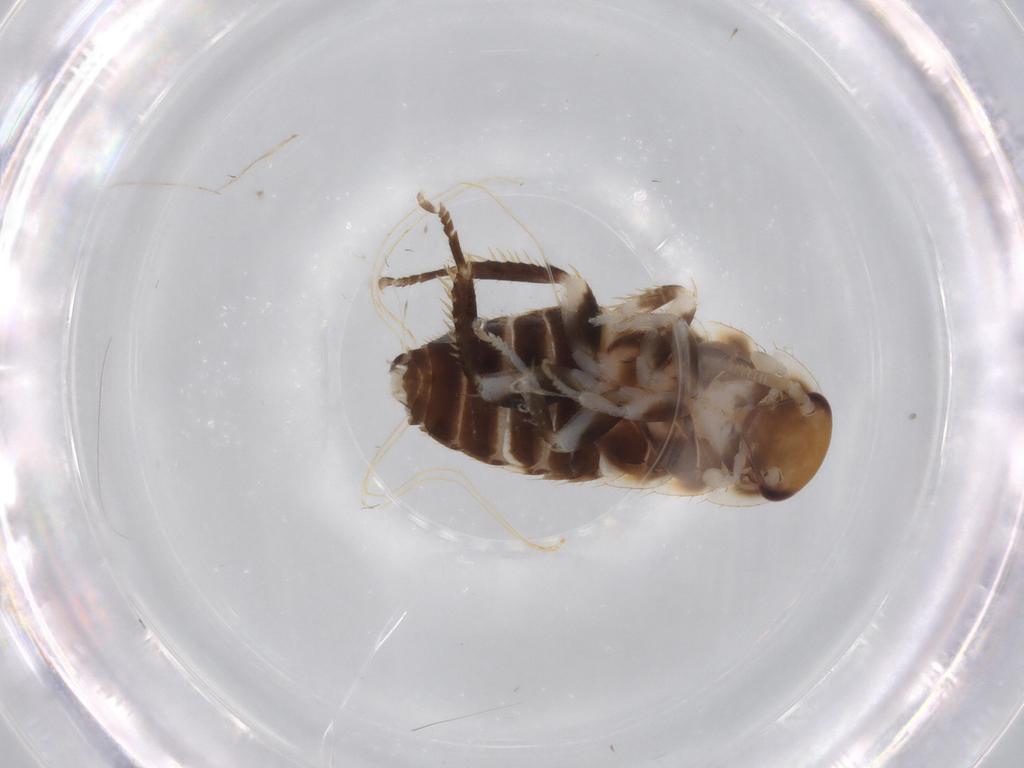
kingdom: Animalia
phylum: Arthropoda
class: Insecta
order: Blattodea
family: Ectobiidae
